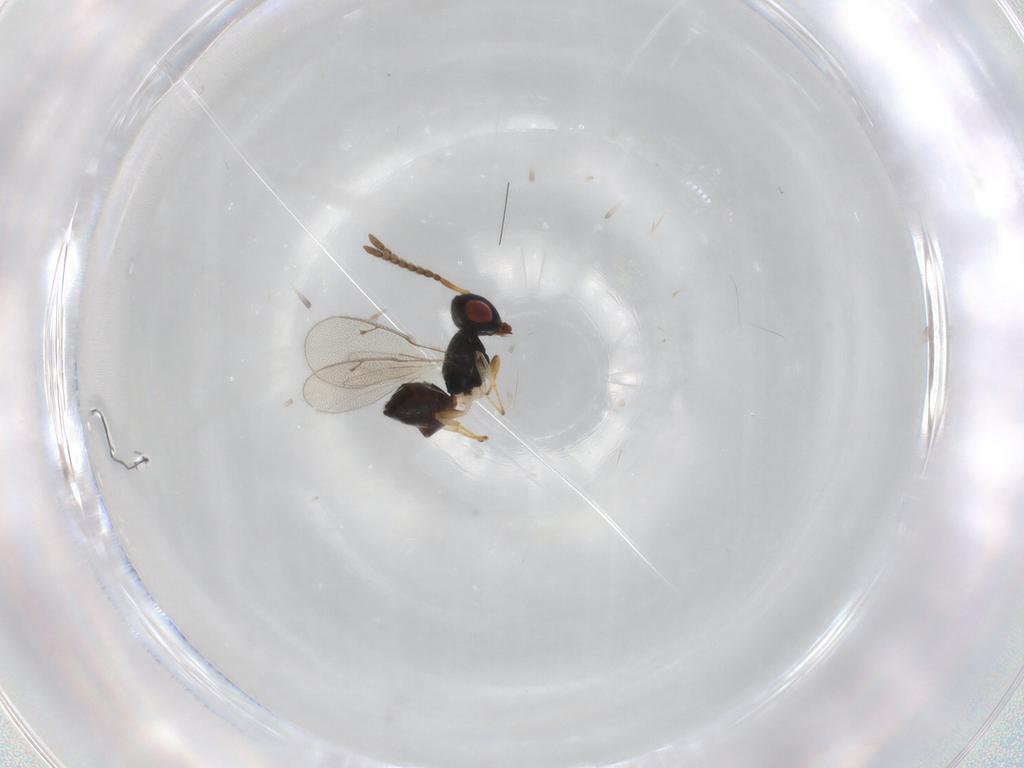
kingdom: Animalia
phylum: Arthropoda
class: Insecta
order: Hymenoptera
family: Pteromalidae
